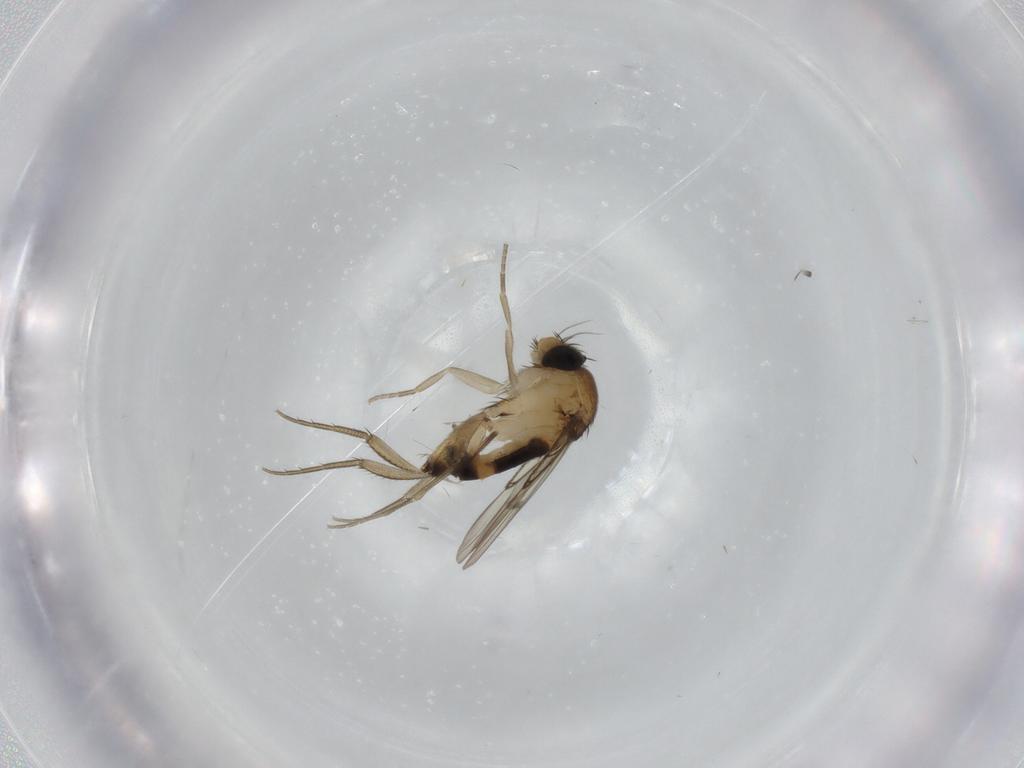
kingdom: Animalia
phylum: Arthropoda
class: Insecta
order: Diptera
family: Phoridae
